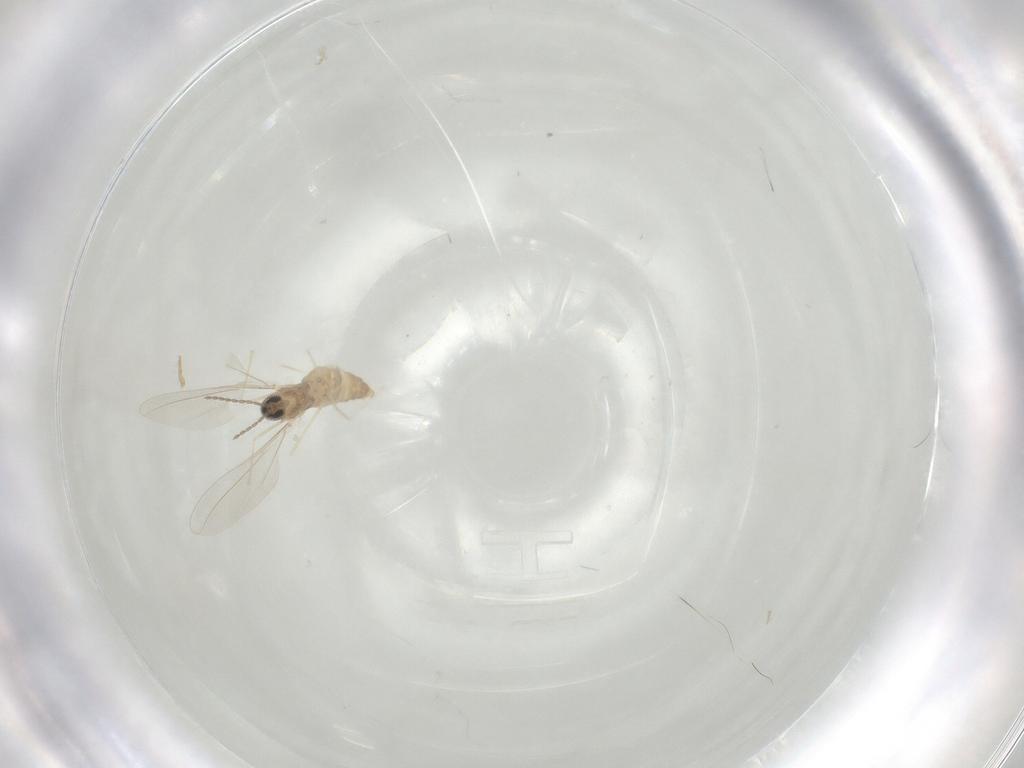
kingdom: Animalia
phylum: Arthropoda
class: Insecta
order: Diptera
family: Cecidomyiidae
